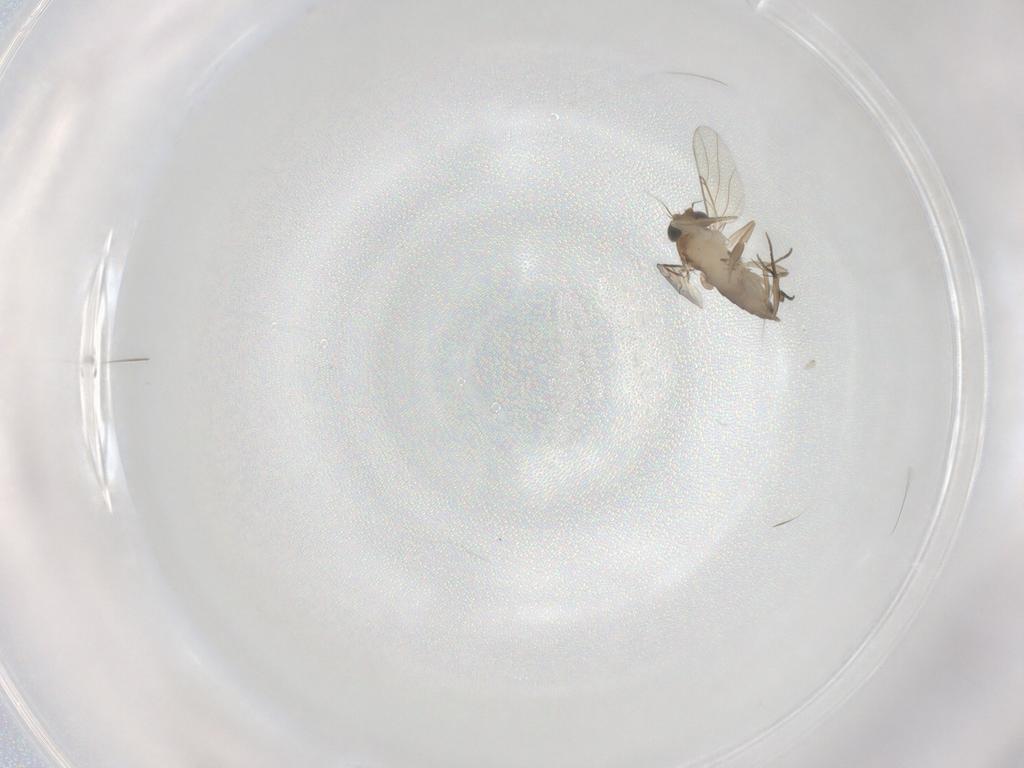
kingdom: Animalia
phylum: Arthropoda
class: Insecta
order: Diptera
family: Phoridae
